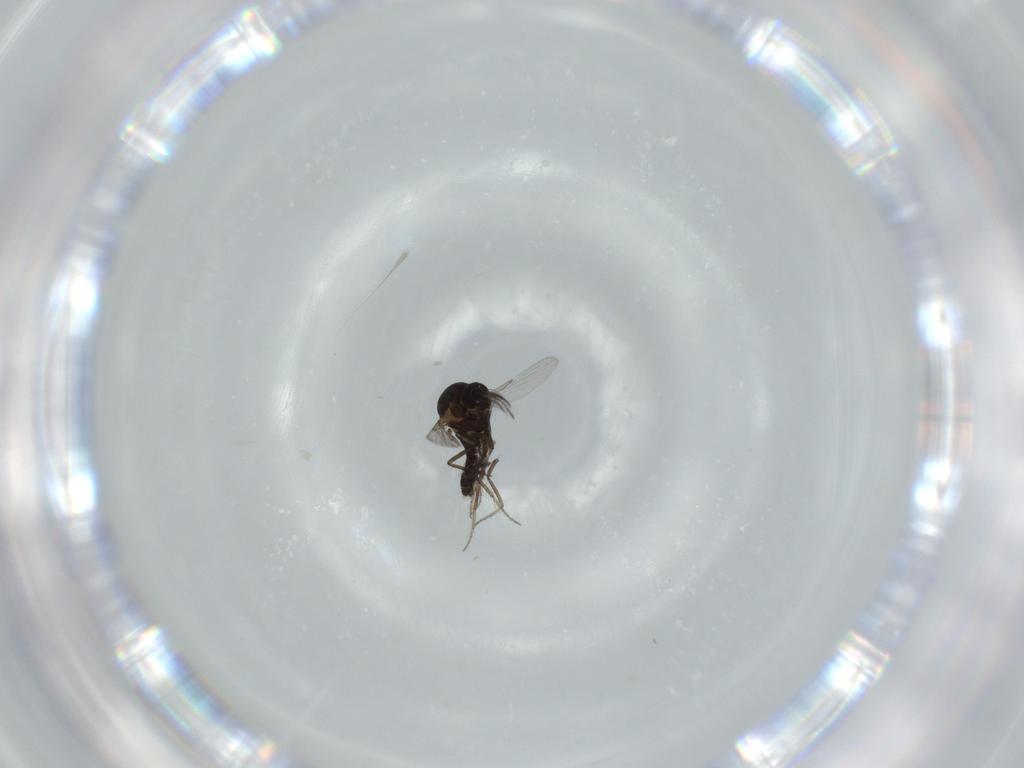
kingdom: Animalia
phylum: Arthropoda
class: Insecta
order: Diptera
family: Ceratopogonidae
